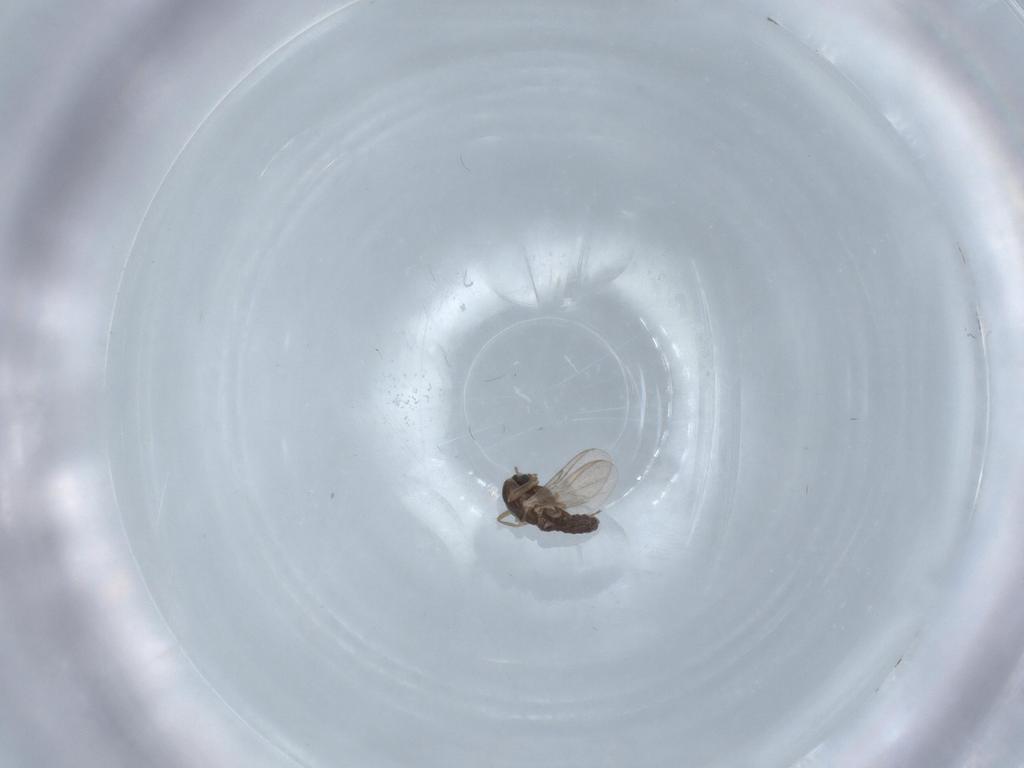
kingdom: Animalia
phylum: Arthropoda
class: Insecta
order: Diptera
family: Chironomidae
